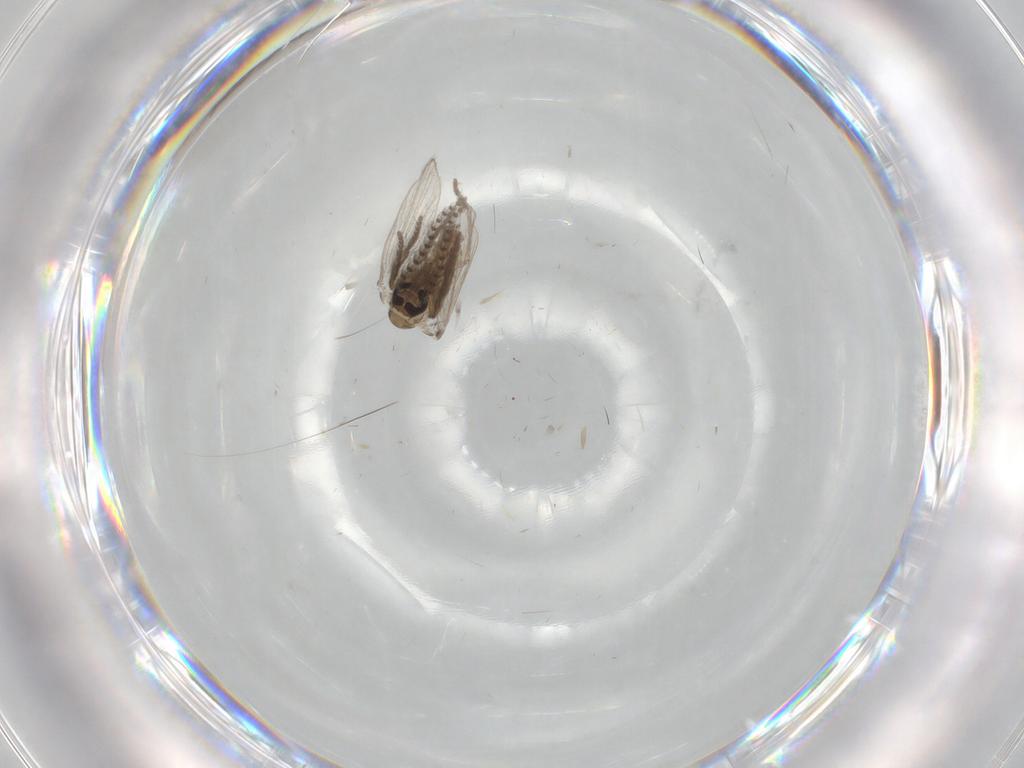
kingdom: Animalia
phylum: Arthropoda
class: Insecta
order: Diptera
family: Psychodidae
